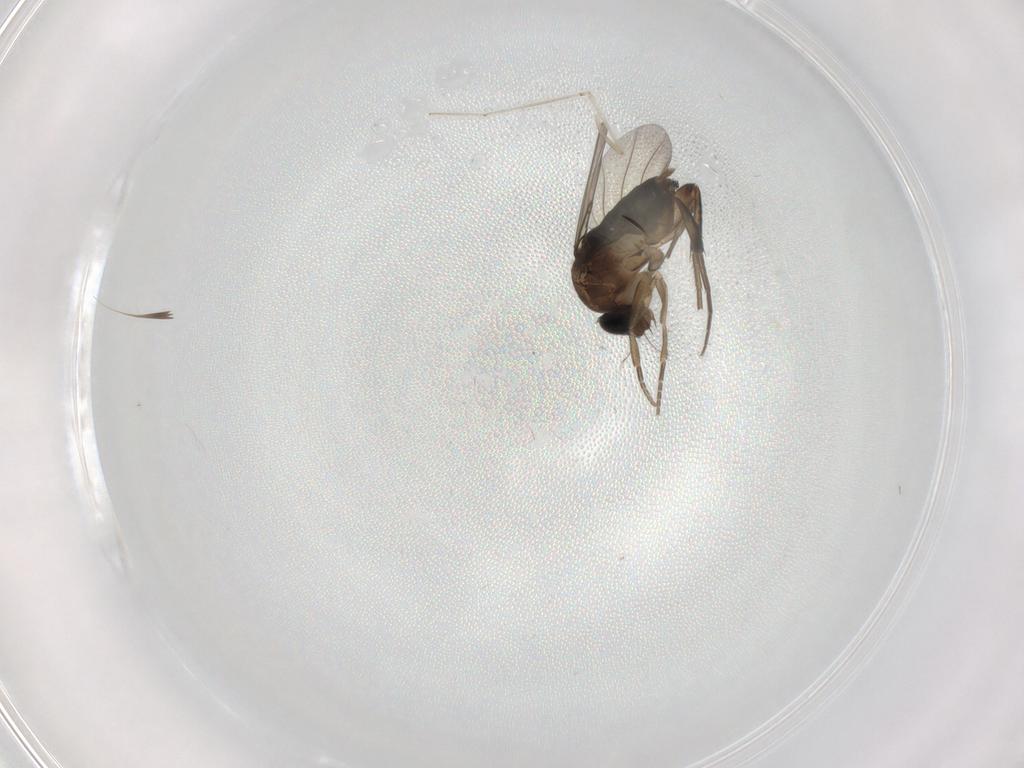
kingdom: Animalia
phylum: Arthropoda
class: Insecta
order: Diptera
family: Phoridae
